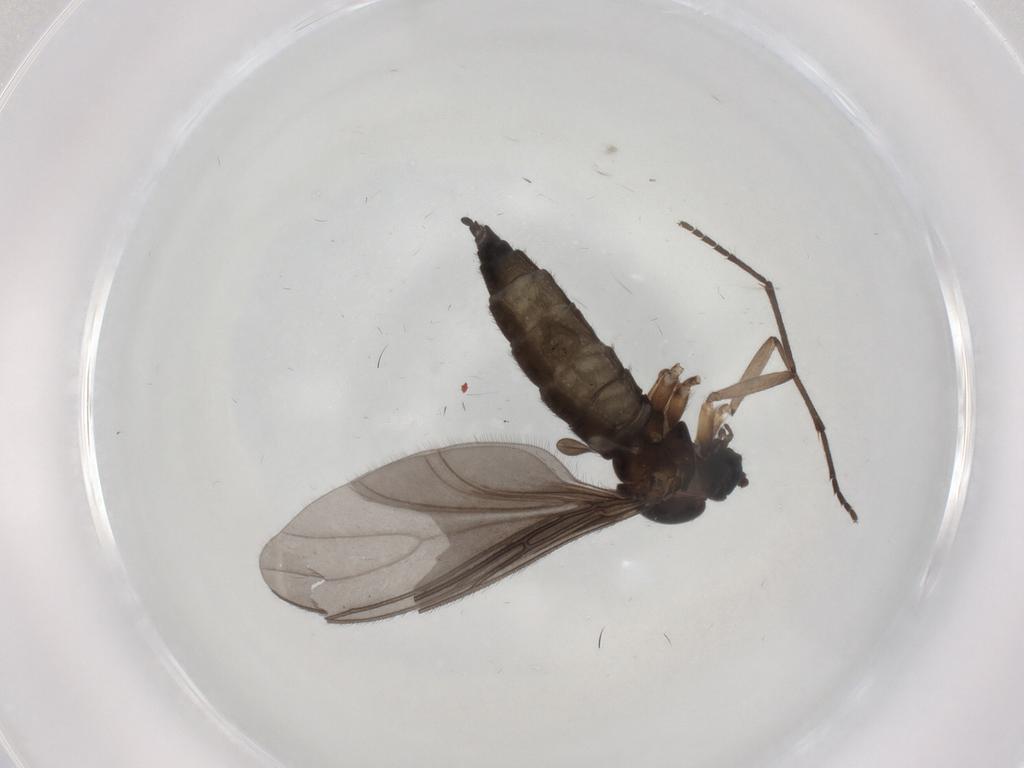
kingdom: Animalia
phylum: Arthropoda
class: Insecta
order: Diptera
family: Sciaridae
